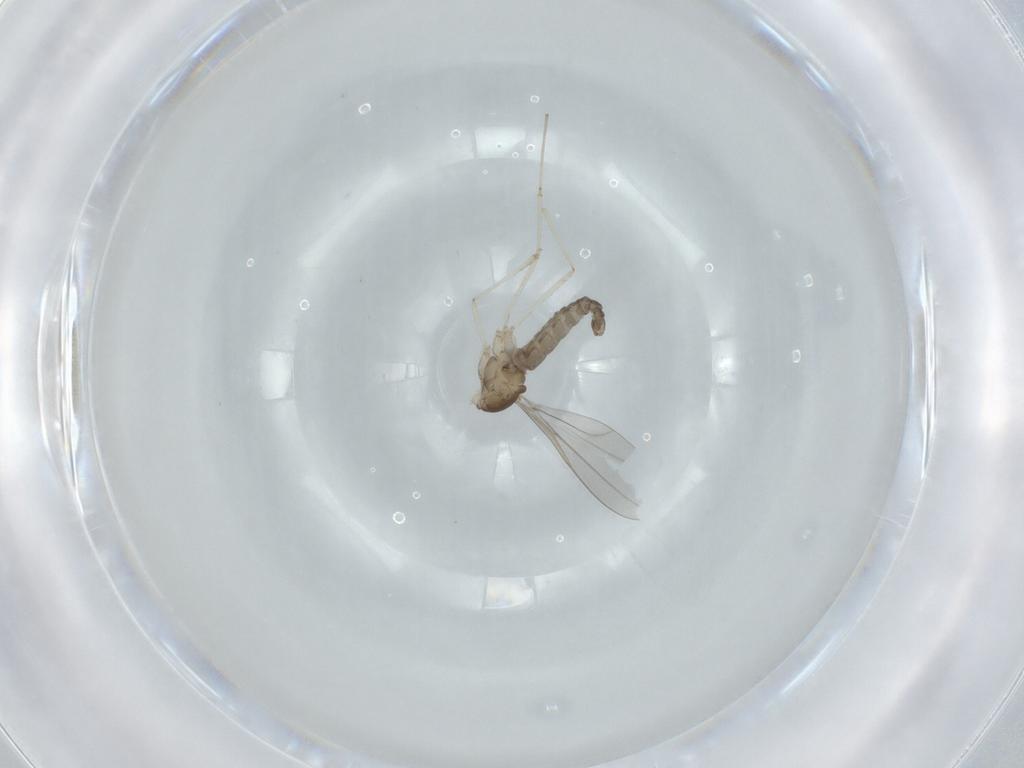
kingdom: Animalia
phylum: Arthropoda
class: Insecta
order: Diptera
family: Cecidomyiidae
